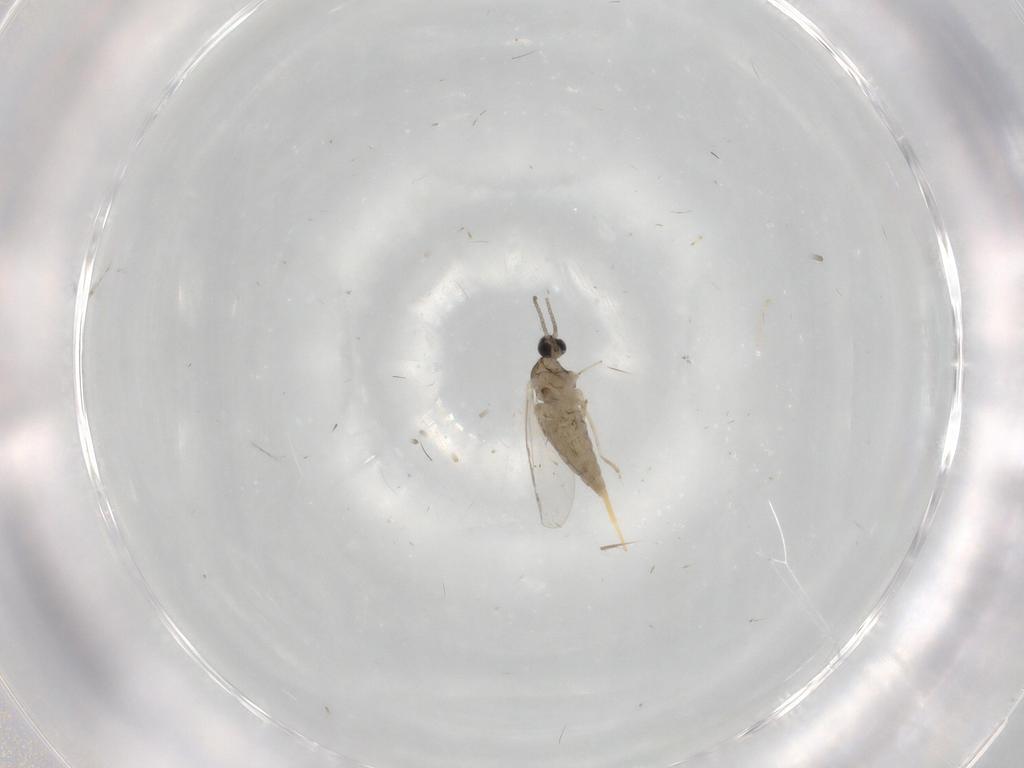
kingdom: Animalia
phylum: Arthropoda
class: Insecta
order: Diptera
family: Cecidomyiidae
